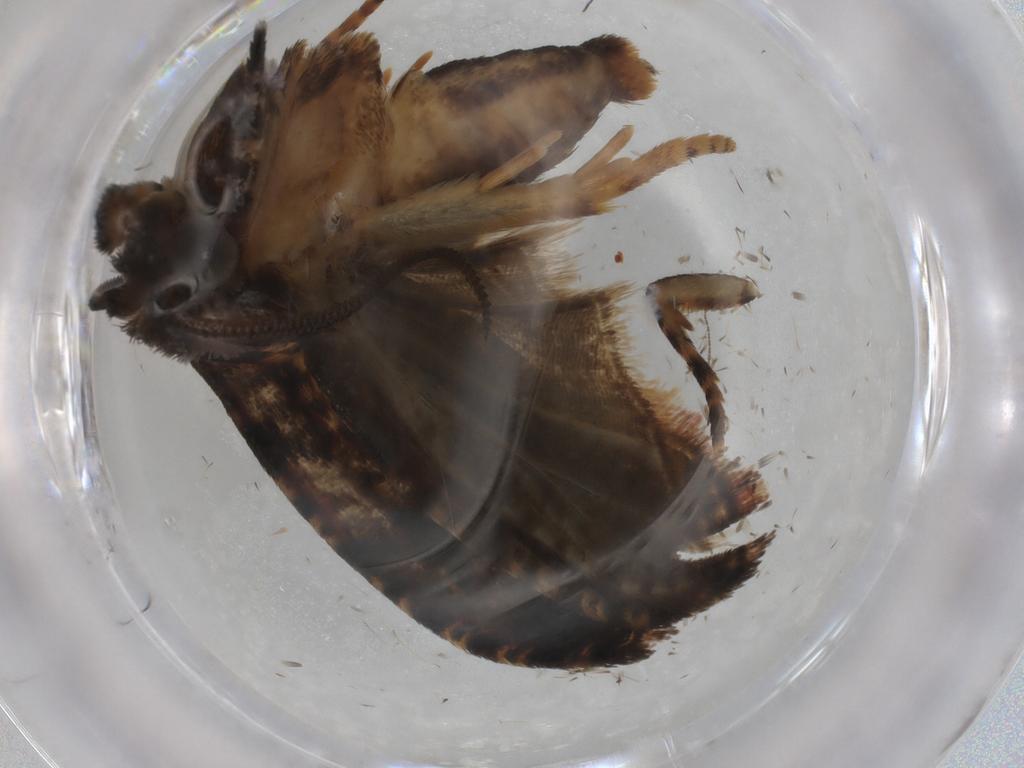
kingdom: Animalia
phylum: Arthropoda
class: Insecta
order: Lepidoptera
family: Tortricidae
